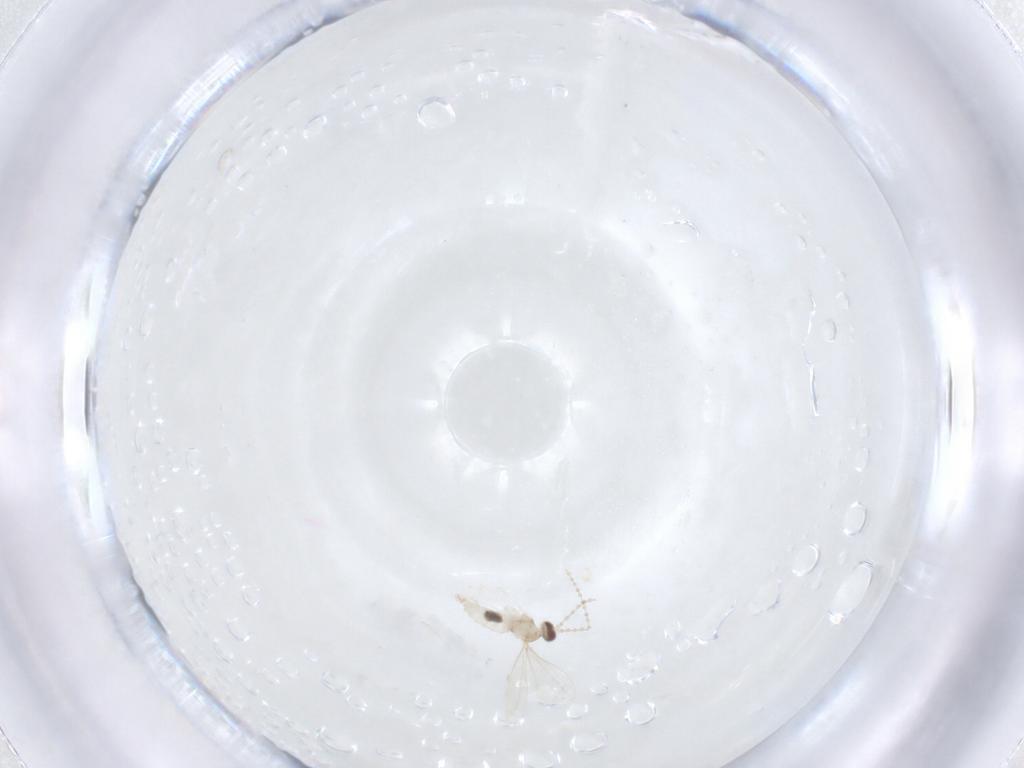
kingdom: Animalia
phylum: Arthropoda
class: Insecta
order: Diptera
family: Cecidomyiidae
